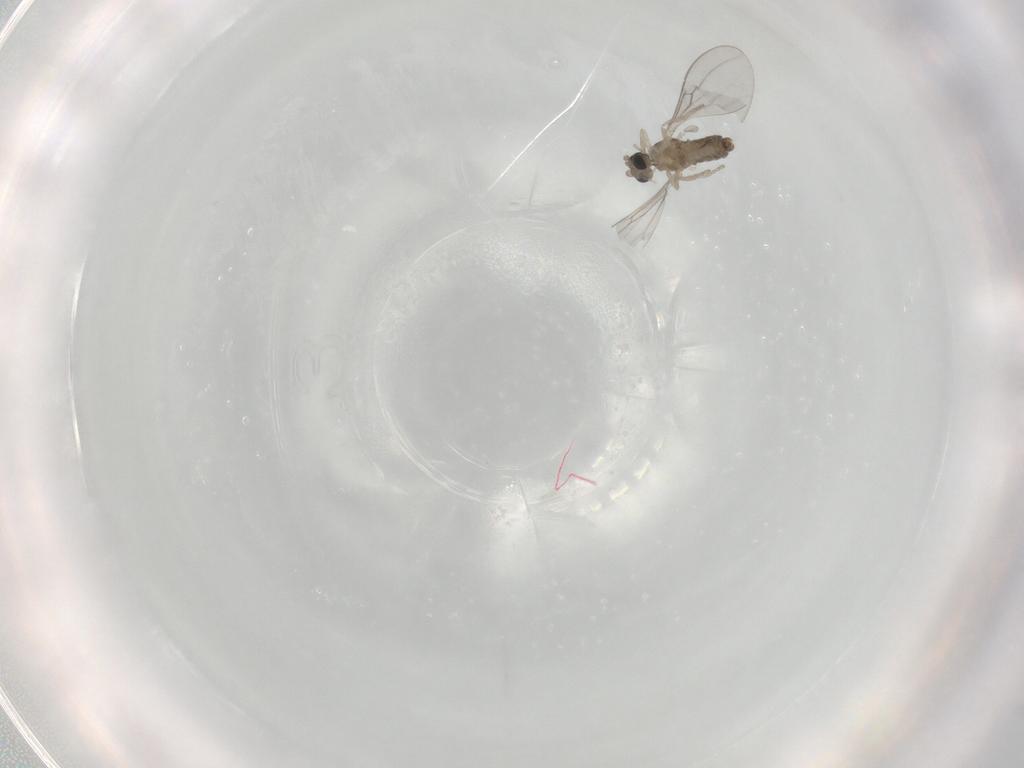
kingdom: Animalia
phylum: Arthropoda
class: Insecta
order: Diptera
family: Cecidomyiidae
